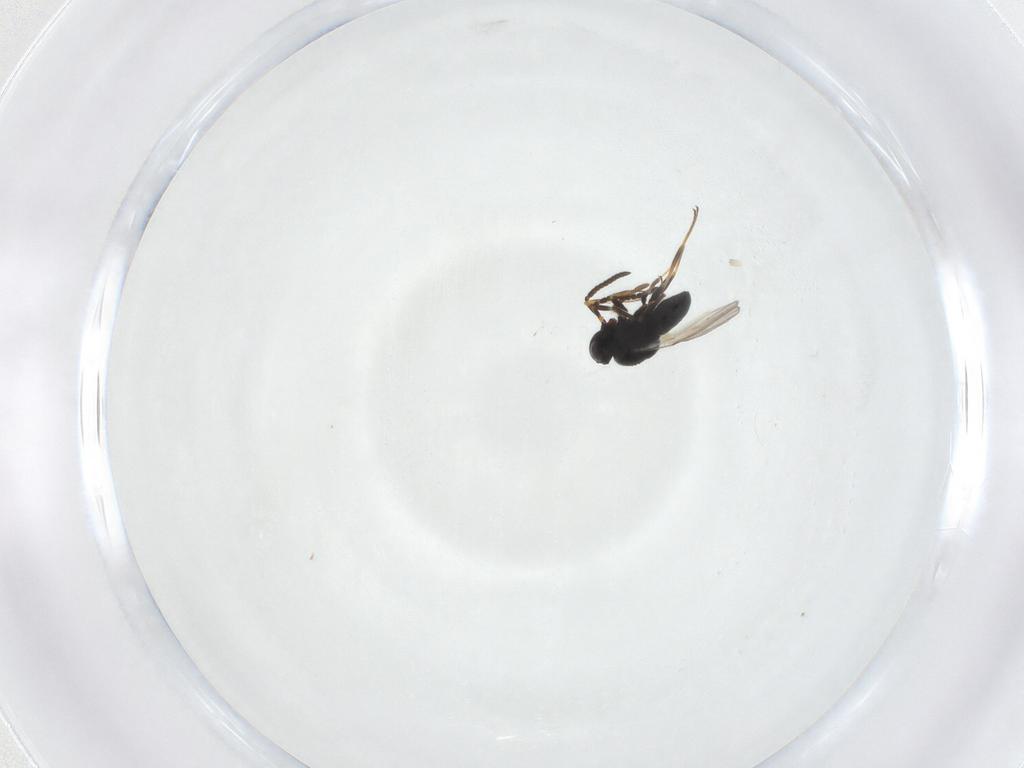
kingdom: Animalia
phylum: Arthropoda
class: Insecta
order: Hymenoptera
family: Scelionidae
